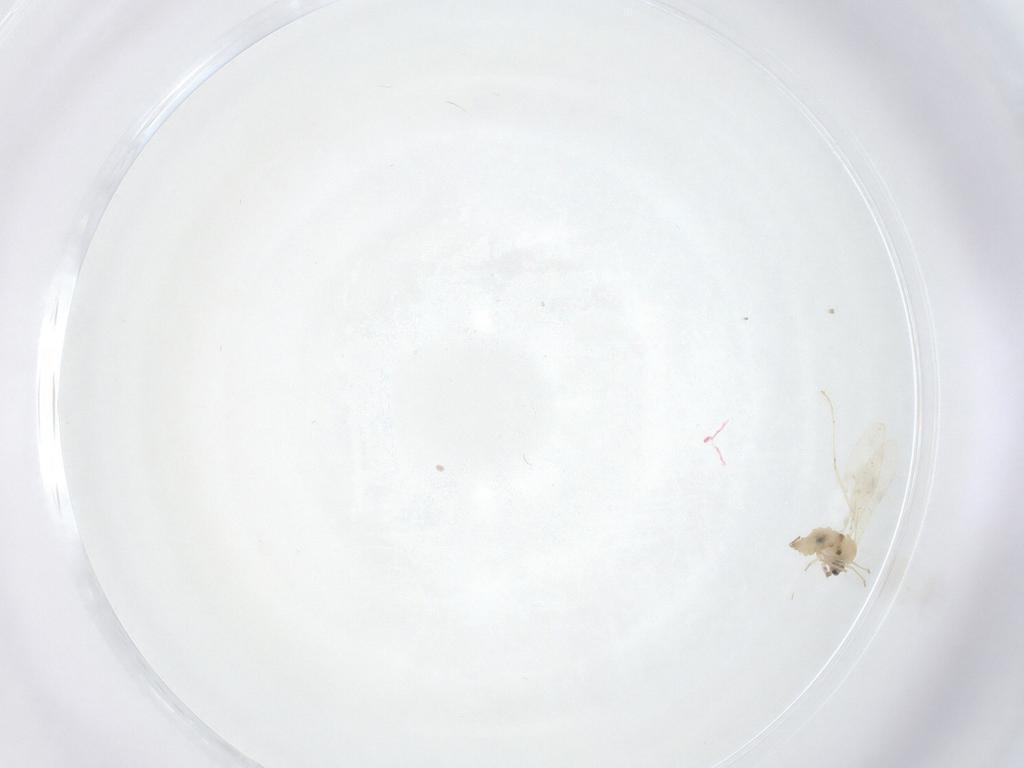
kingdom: Animalia
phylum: Arthropoda
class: Insecta
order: Diptera
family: Cecidomyiidae
